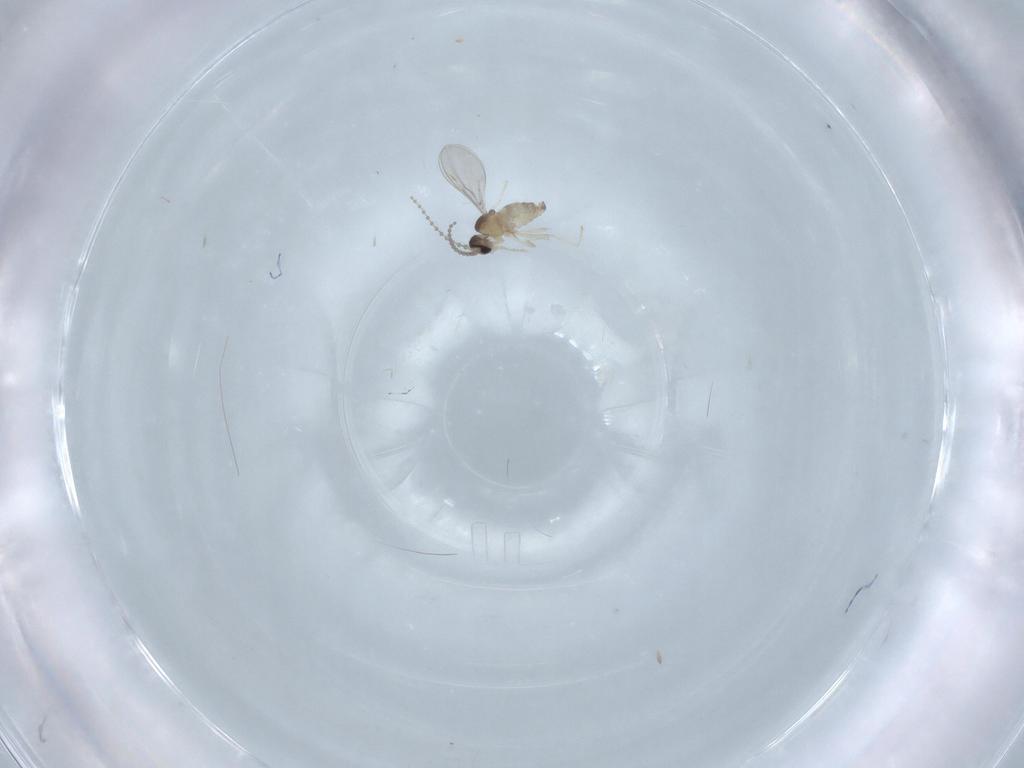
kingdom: Animalia
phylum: Arthropoda
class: Insecta
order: Diptera
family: Cecidomyiidae
